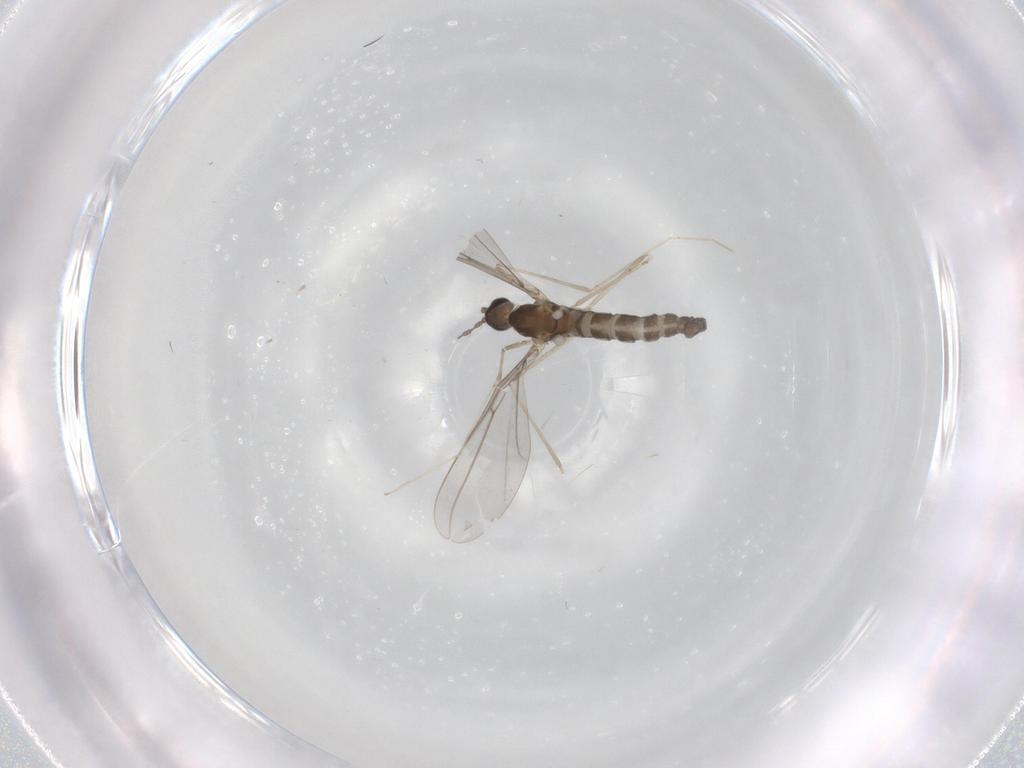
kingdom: Animalia
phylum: Arthropoda
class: Insecta
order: Diptera
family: Cecidomyiidae
